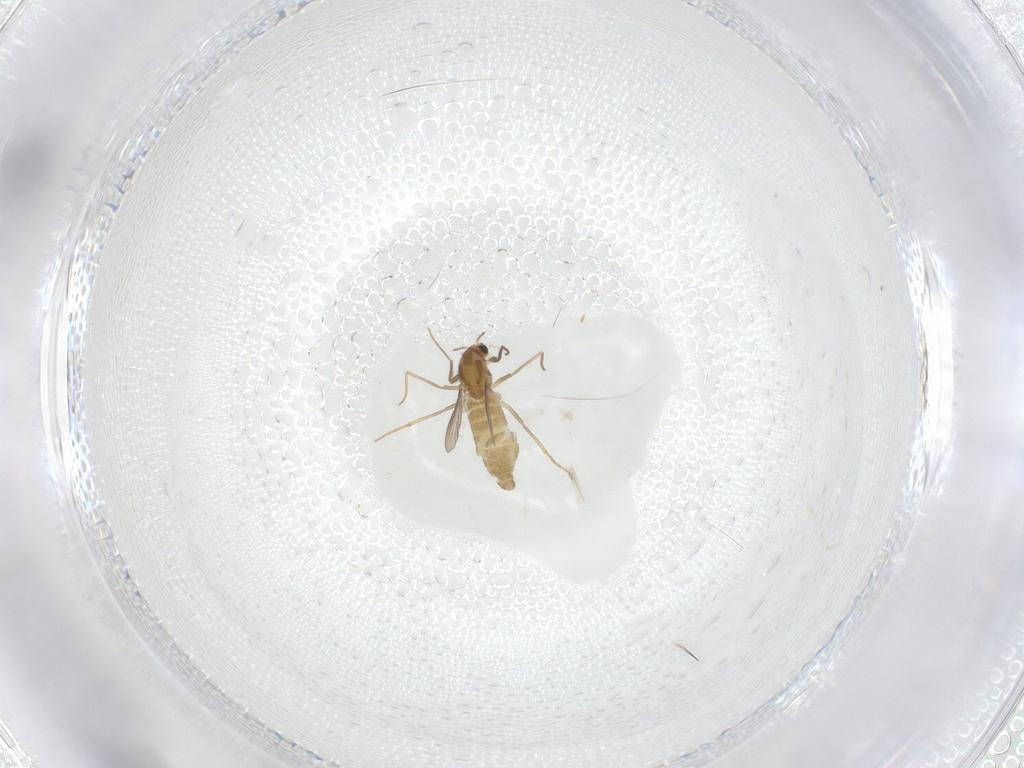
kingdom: Animalia
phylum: Arthropoda
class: Insecta
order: Diptera
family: Chironomidae
